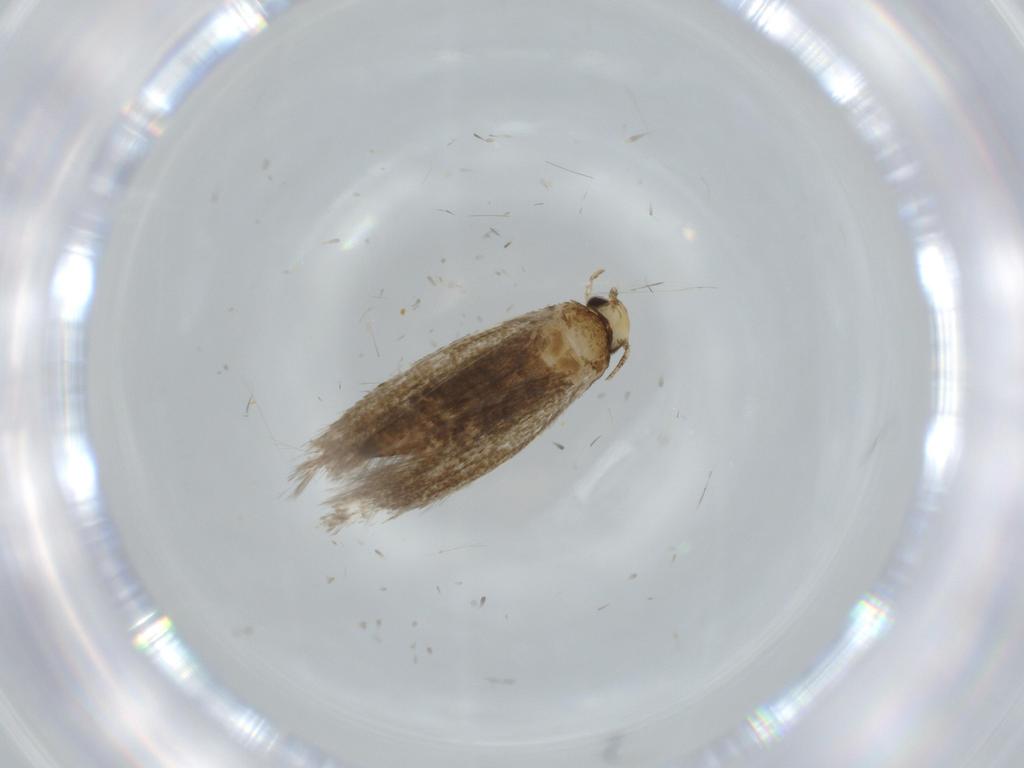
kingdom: Animalia
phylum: Arthropoda
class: Insecta
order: Lepidoptera
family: Tineidae
